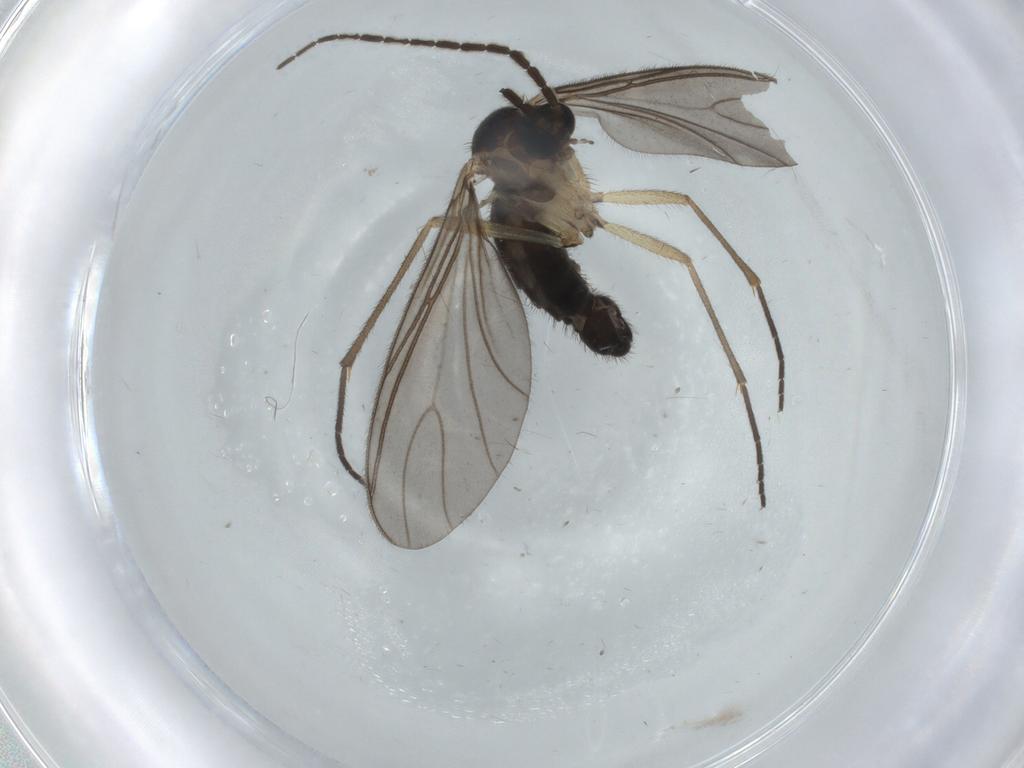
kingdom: Animalia
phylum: Arthropoda
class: Insecta
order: Diptera
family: Sciaridae
